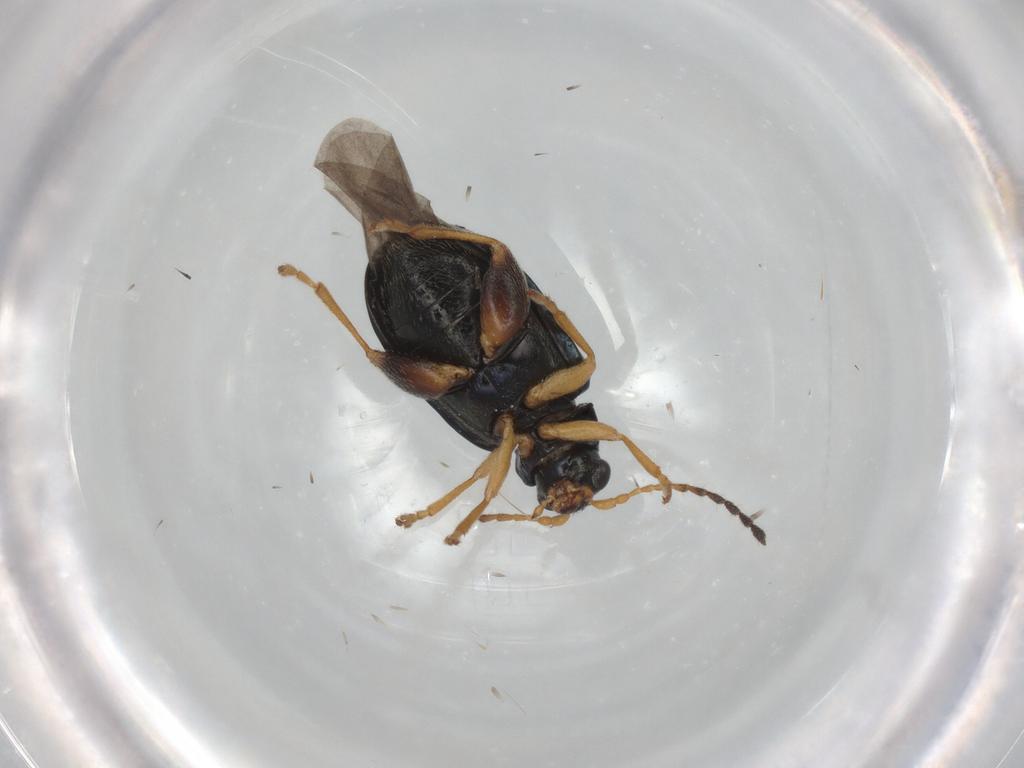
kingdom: Animalia
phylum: Arthropoda
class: Insecta
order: Coleoptera
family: Chrysomelidae
